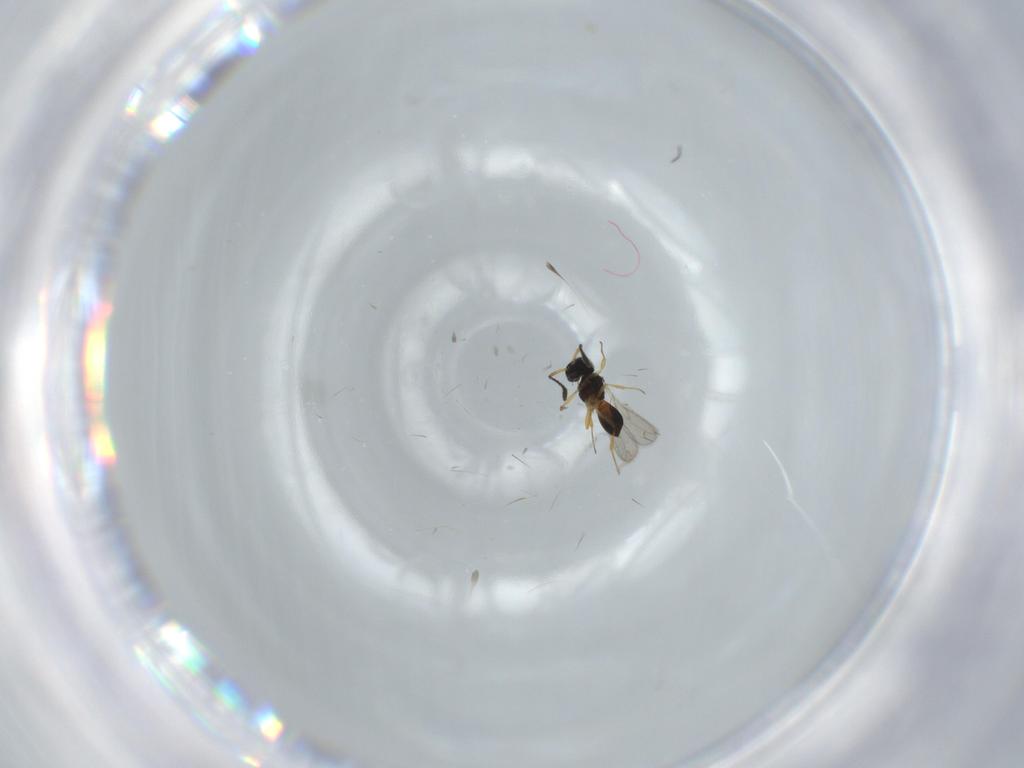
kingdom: Animalia
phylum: Arthropoda
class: Insecta
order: Hymenoptera
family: Scelionidae
